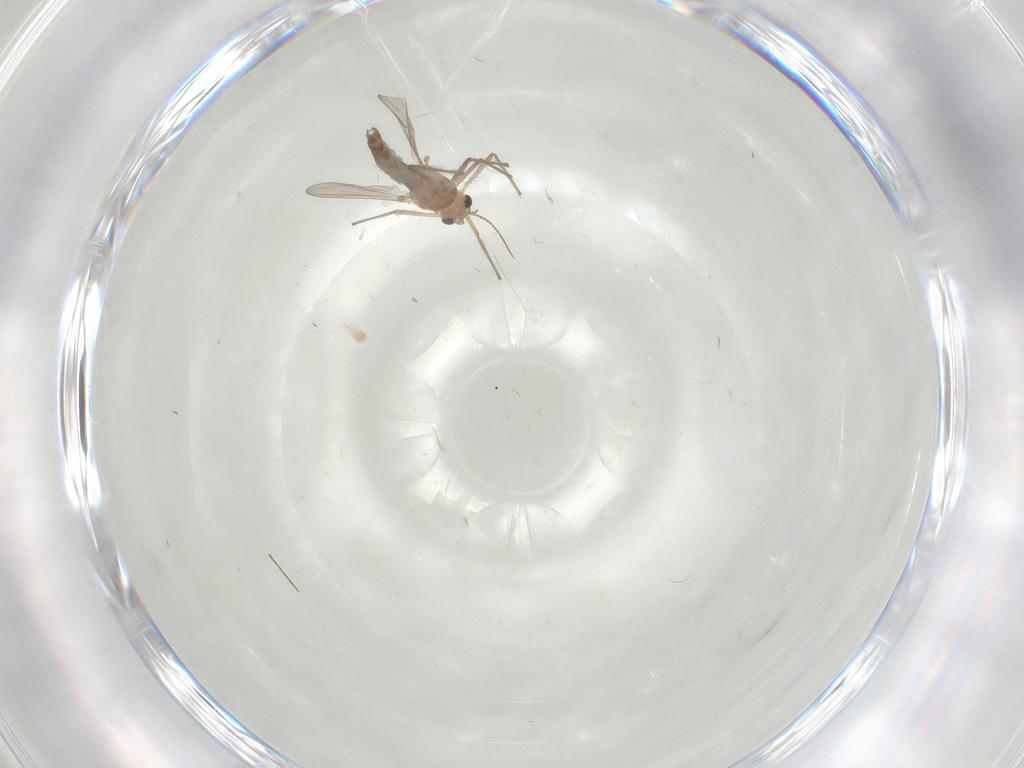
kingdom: Animalia
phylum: Arthropoda
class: Insecta
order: Diptera
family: Chironomidae
